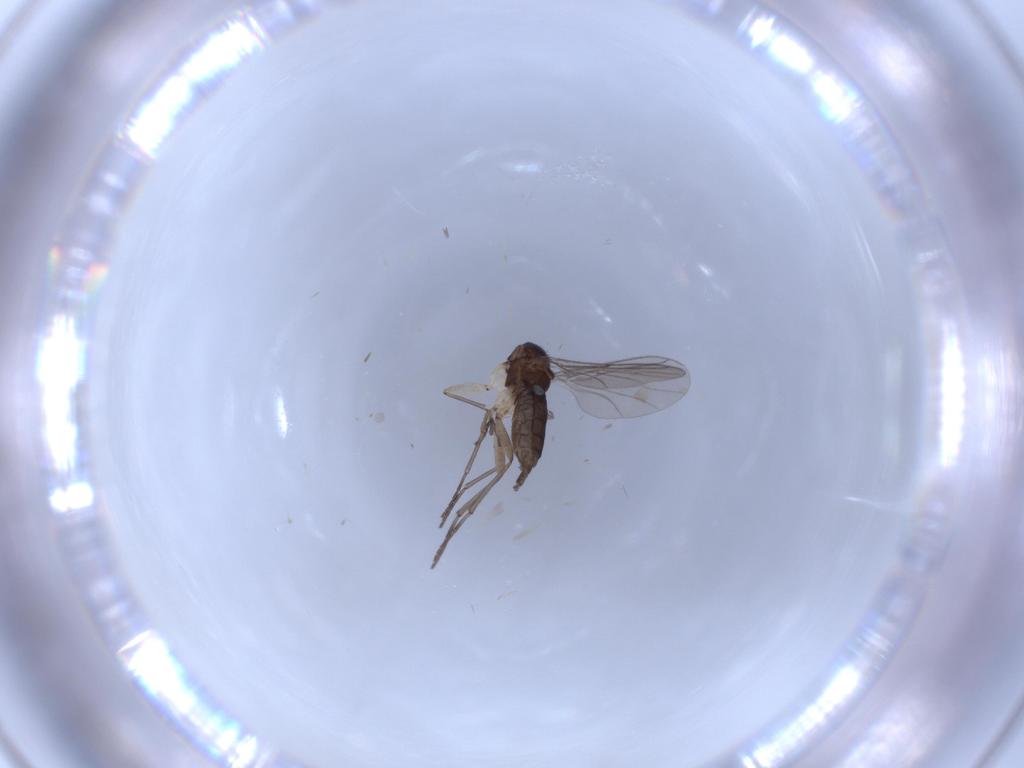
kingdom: Animalia
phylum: Arthropoda
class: Insecta
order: Diptera
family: Sciaridae
